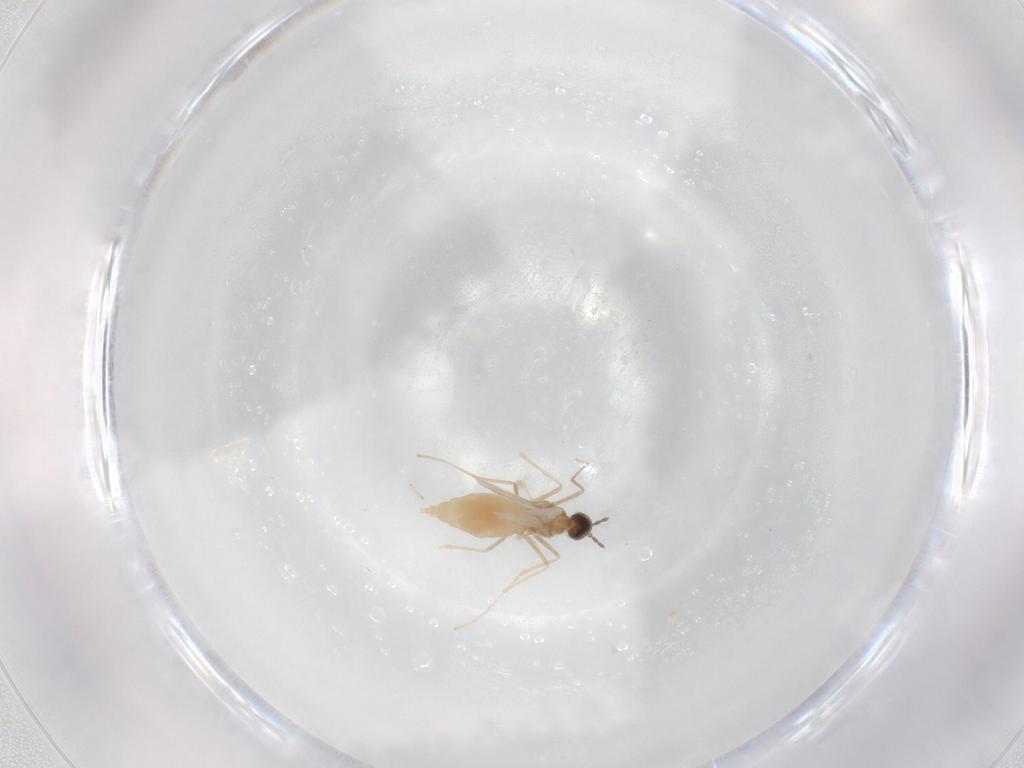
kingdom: Animalia
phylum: Arthropoda
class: Insecta
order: Diptera
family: Cecidomyiidae
